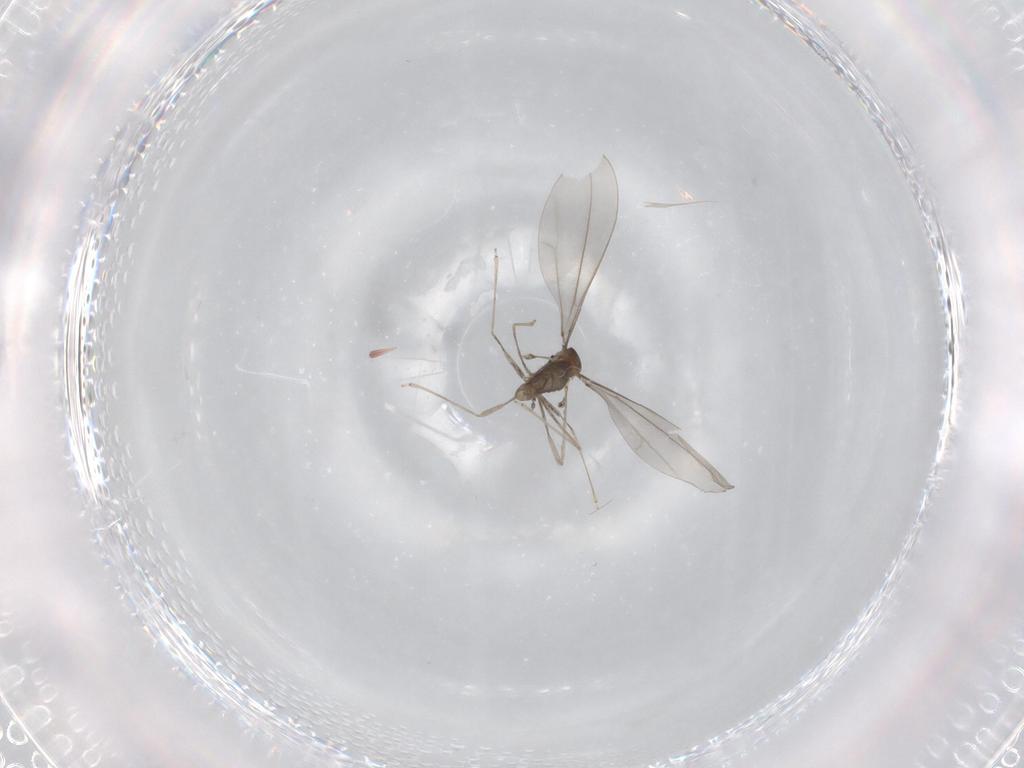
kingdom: Animalia
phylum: Arthropoda
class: Insecta
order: Diptera
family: Cecidomyiidae
